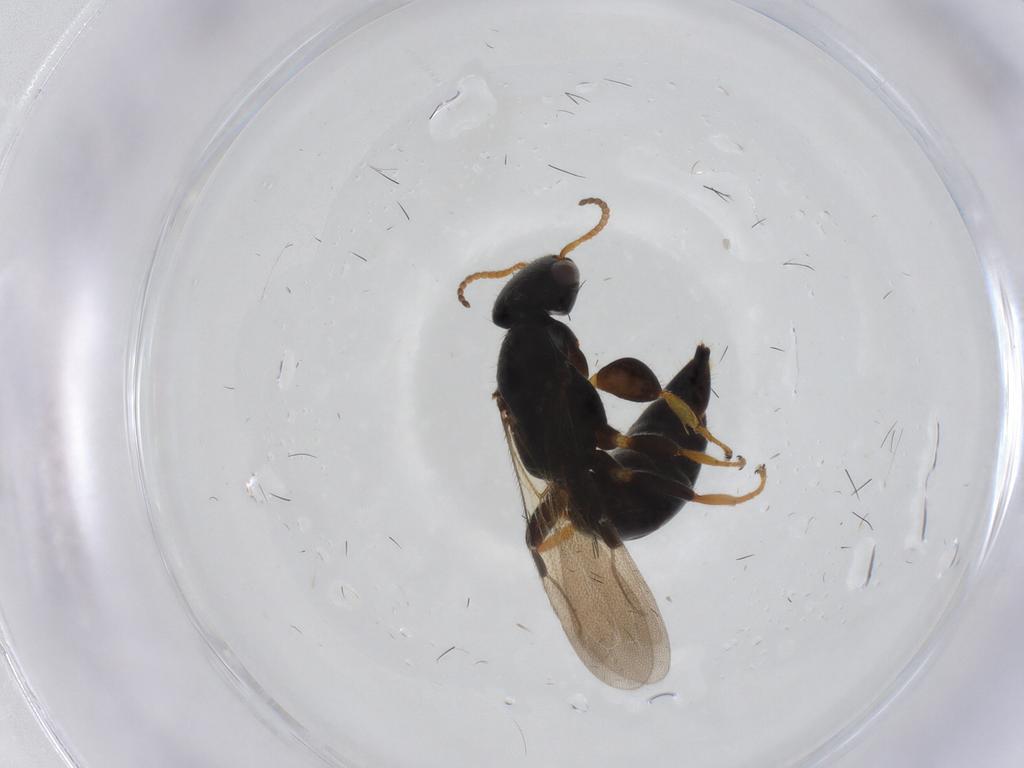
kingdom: Animalia
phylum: Arthropoda
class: Insecta
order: Hymenoptera
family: Bethylidae
